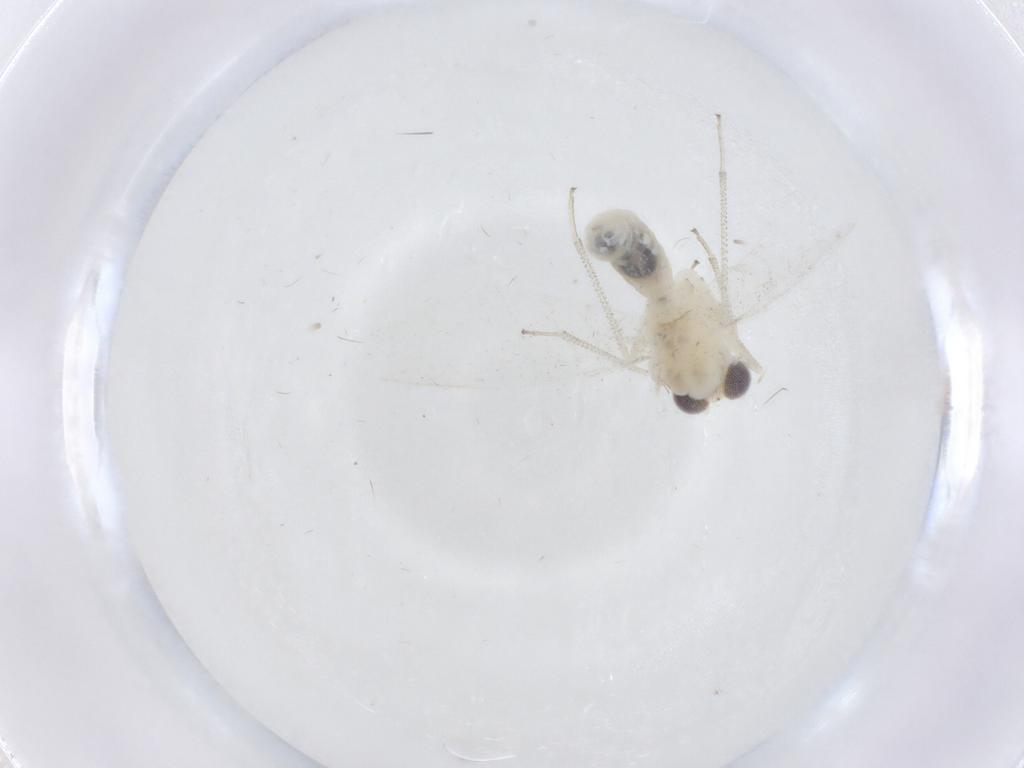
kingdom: Animalia
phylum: Arthropoda
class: Insecta
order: Psocodea
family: Caeciliusidae
